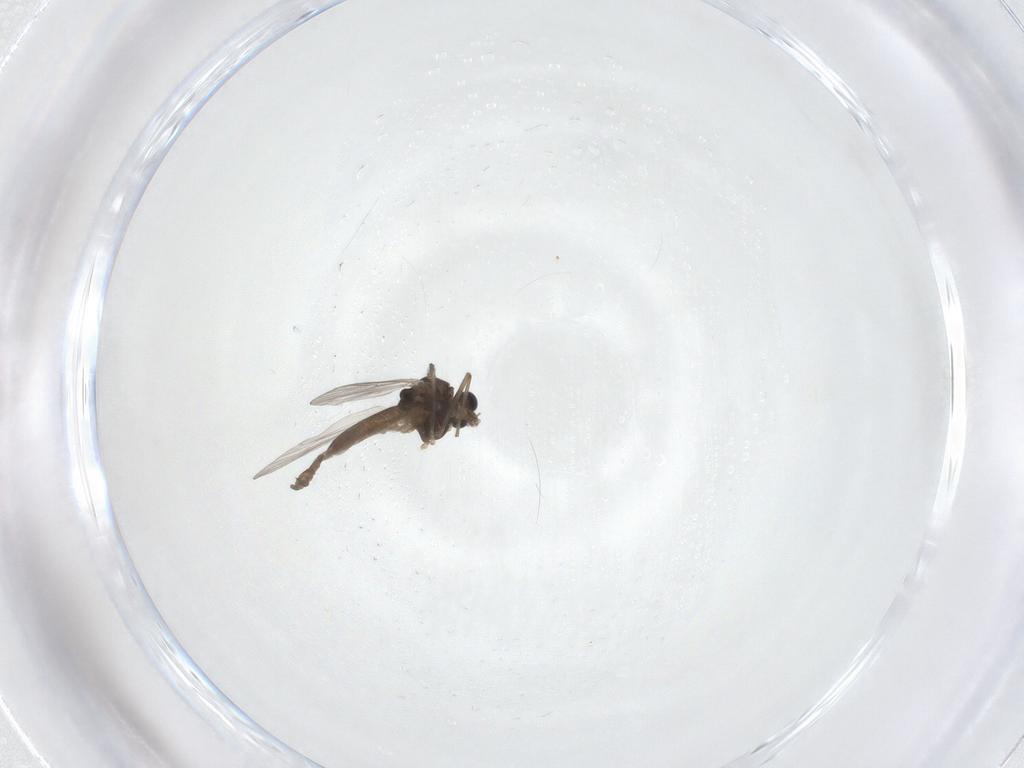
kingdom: Animalia
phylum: Arthropoda
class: Insecta
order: Diptera
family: Chironomidae
